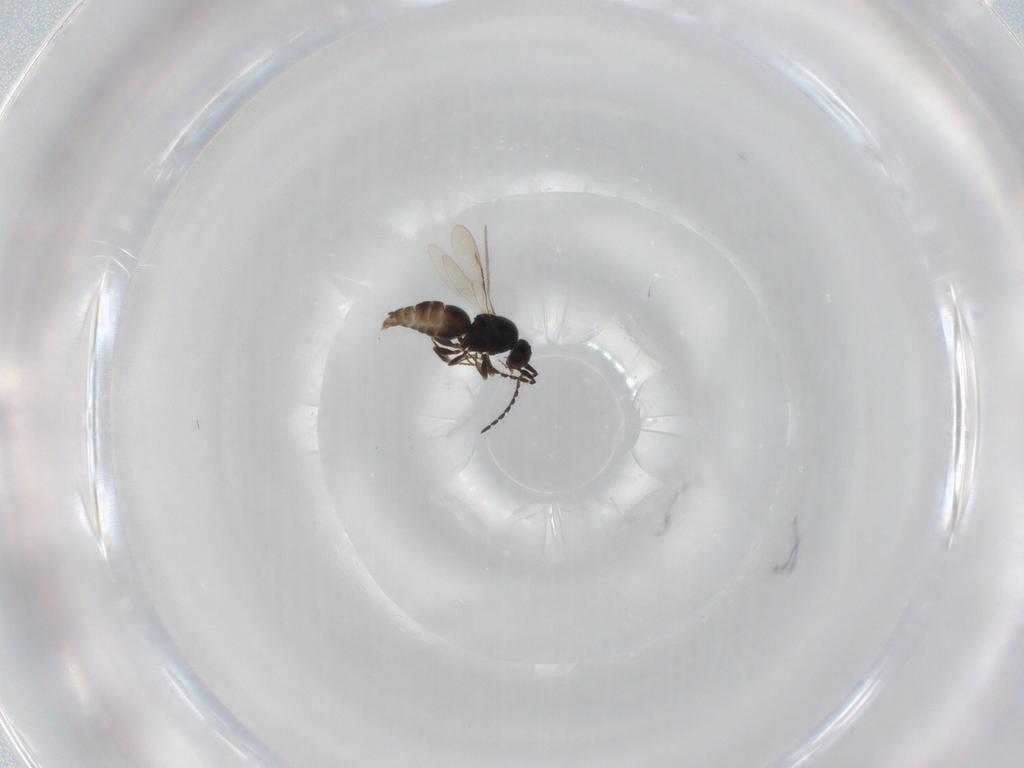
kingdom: Animalia
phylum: Arthropoda
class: Insecta
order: Hymenoptera
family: Ceraphronidae
